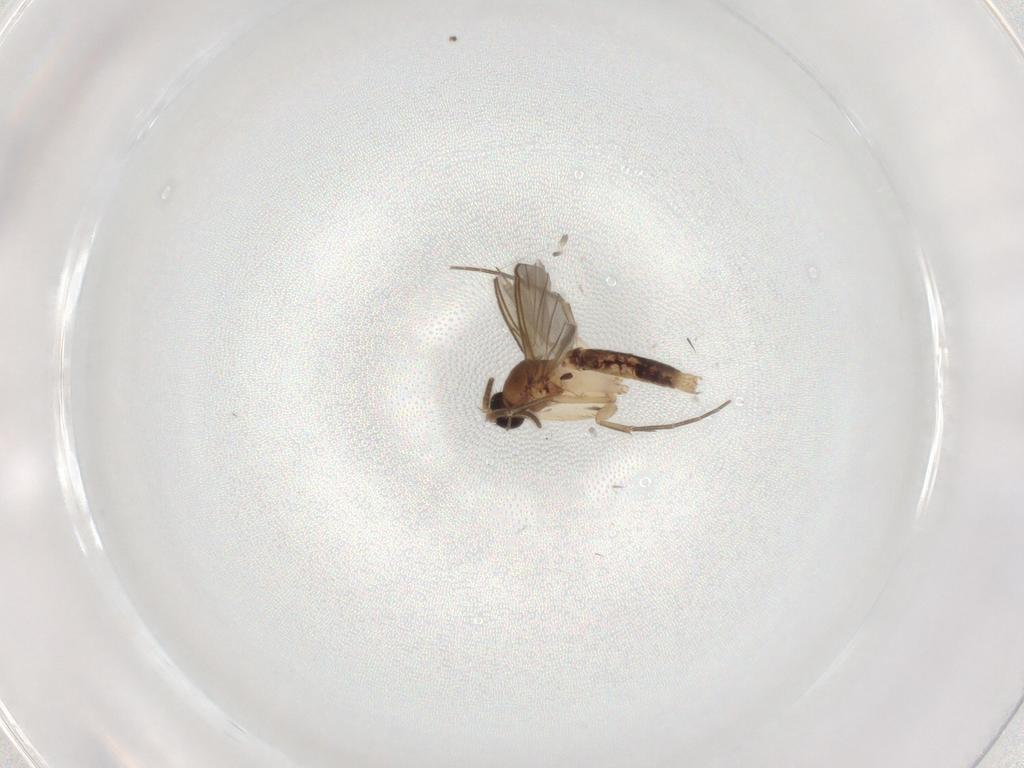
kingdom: Animalia
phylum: Arthropoda
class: Insecta
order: Diptera
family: Mycetophilidae
